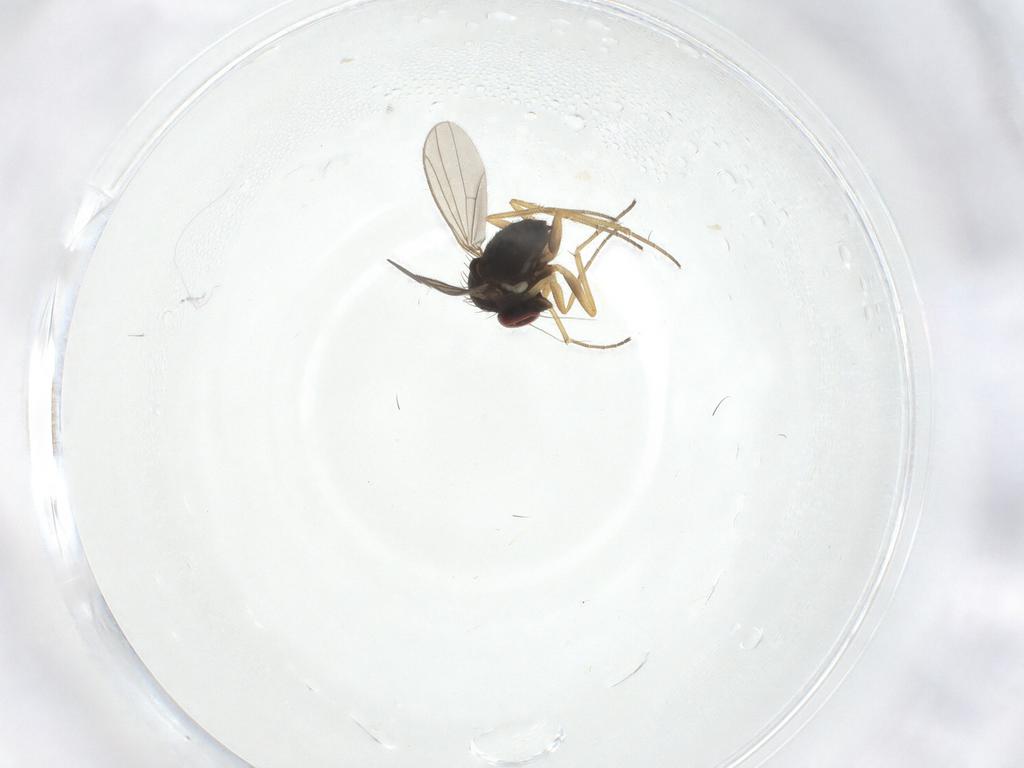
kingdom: Animalia
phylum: Arthropoda
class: Insecta
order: Diptera
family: Dolichopodidae
